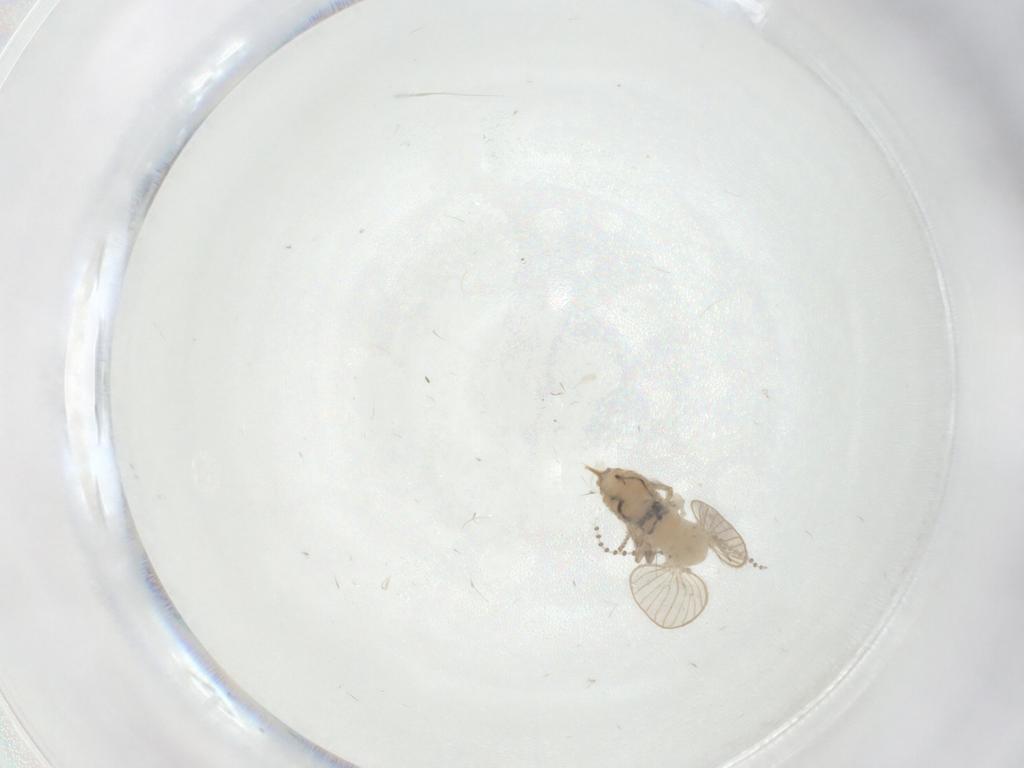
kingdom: Animalia
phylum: Arthropoda
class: Insecta
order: Diptera
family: Psychodidae
